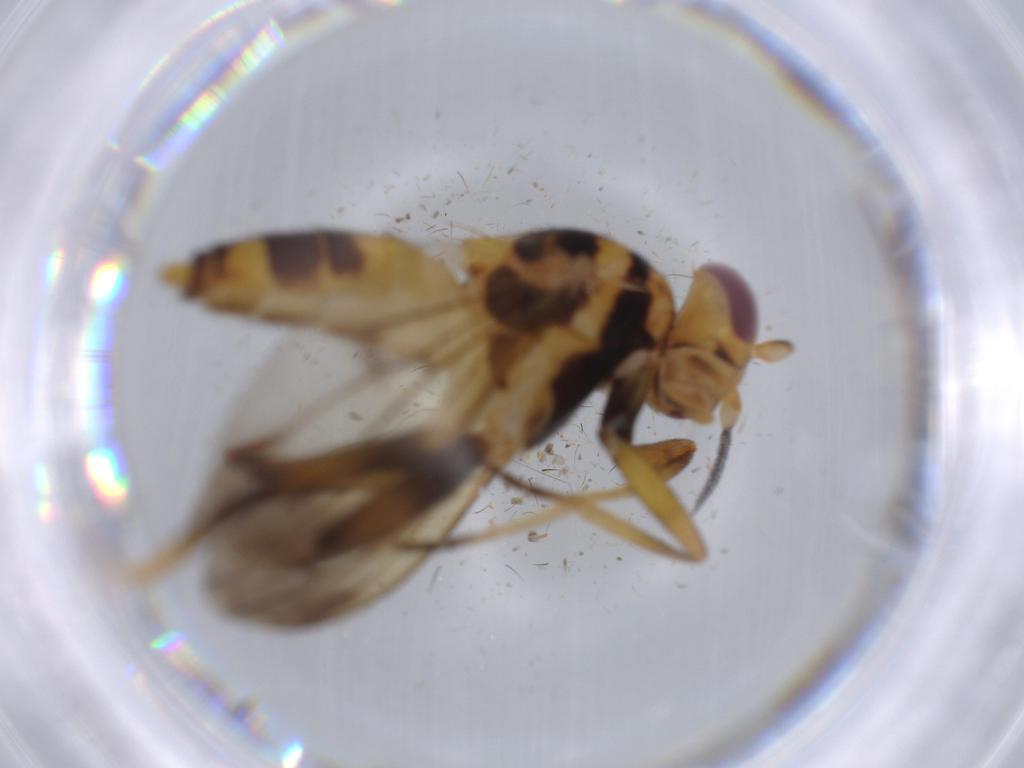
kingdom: Animalia
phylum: Arthropoda
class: Insecta
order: Diptera
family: Clusiidae
